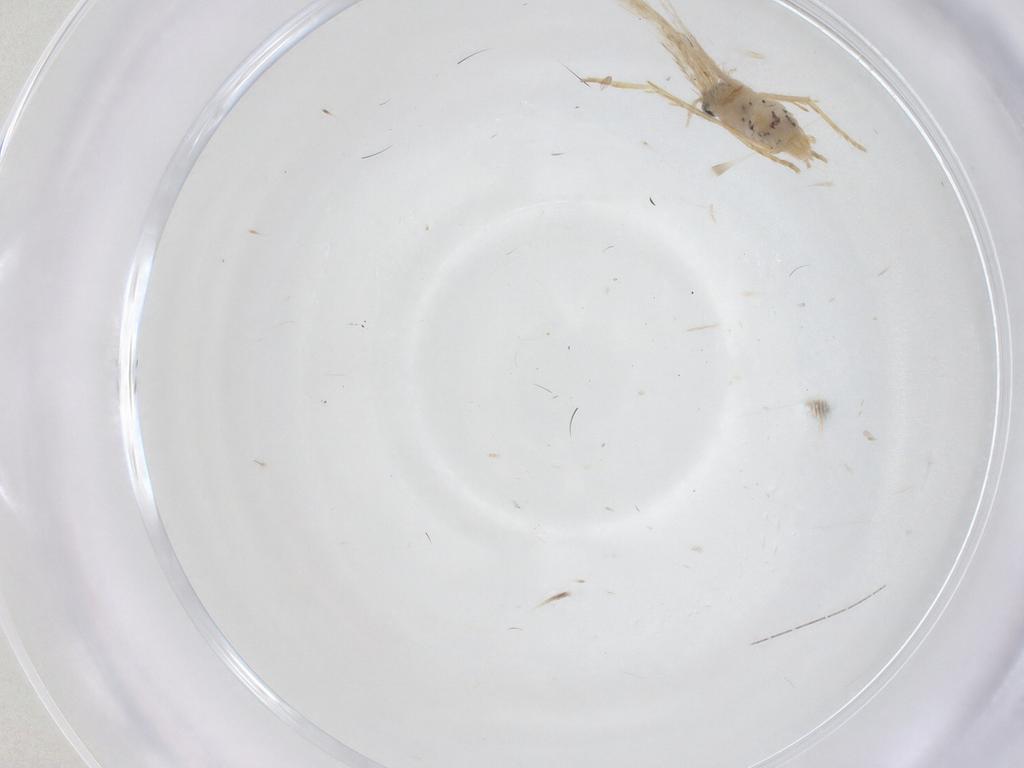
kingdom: Animalia
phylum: Arthropoda
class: Insecta
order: Lepidoptera
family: Nepticulidae
